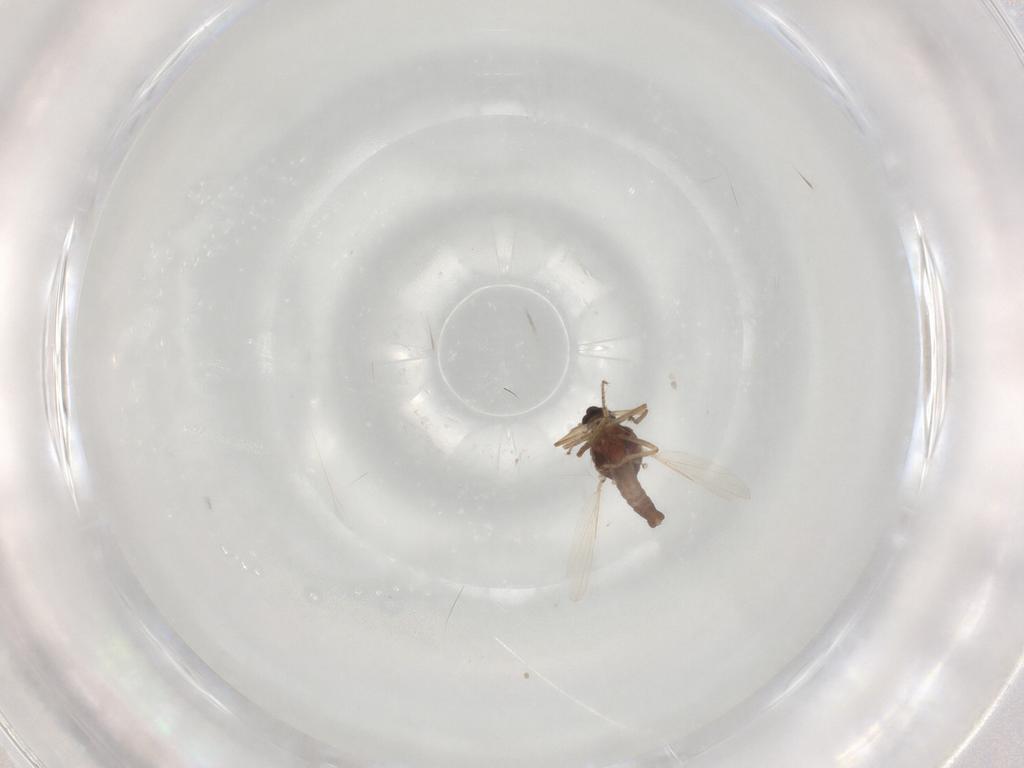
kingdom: Animalia
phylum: Arthropoda
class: Insecta
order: Diptera
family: Ceratopogonidae
